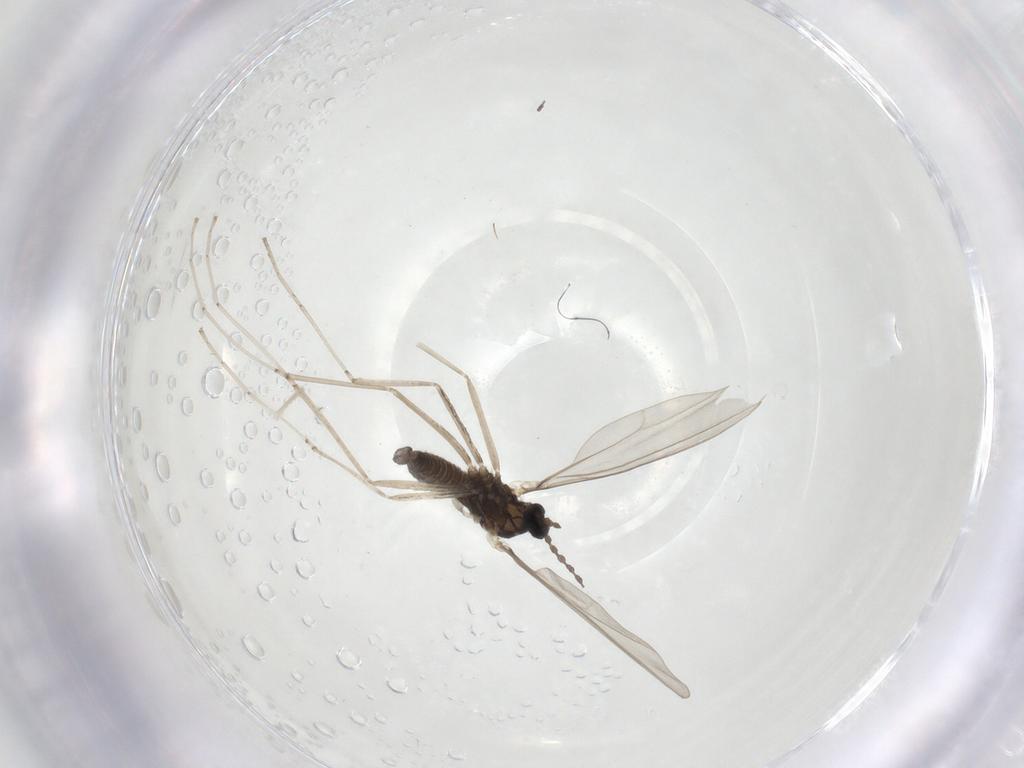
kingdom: Animalia
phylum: Arthropoda
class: Insecta
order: Diptera
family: Cecidomyiidae
